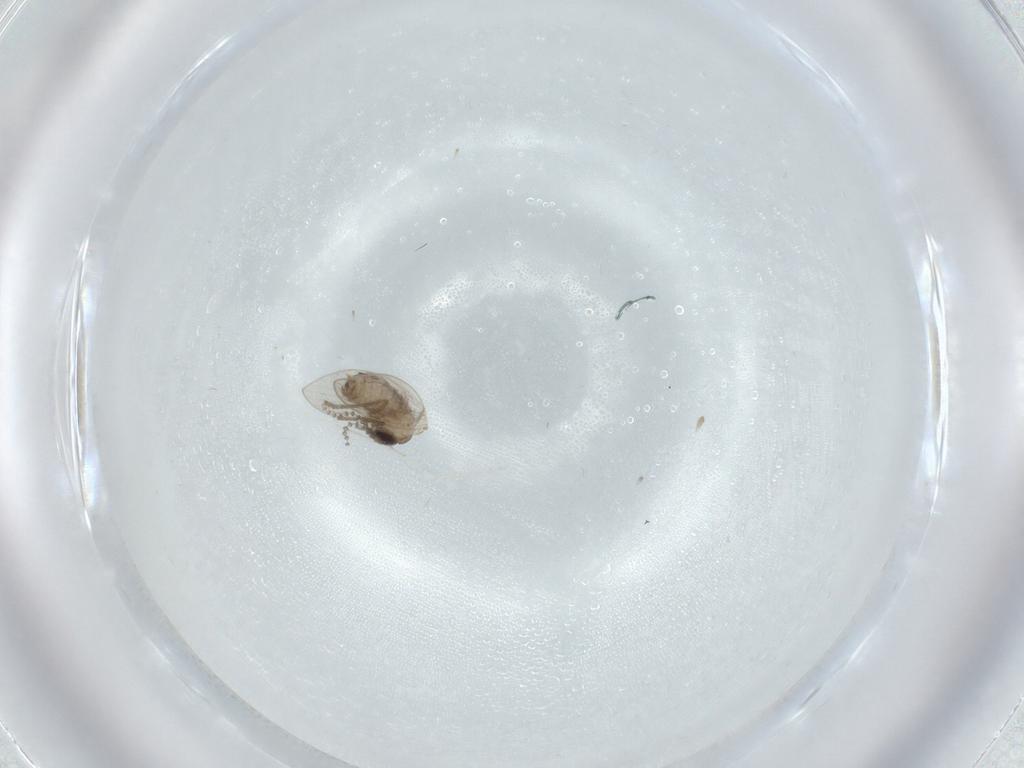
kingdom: Animalia
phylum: Arthropoda
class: Insecta
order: Diptera
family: Psychodidae
